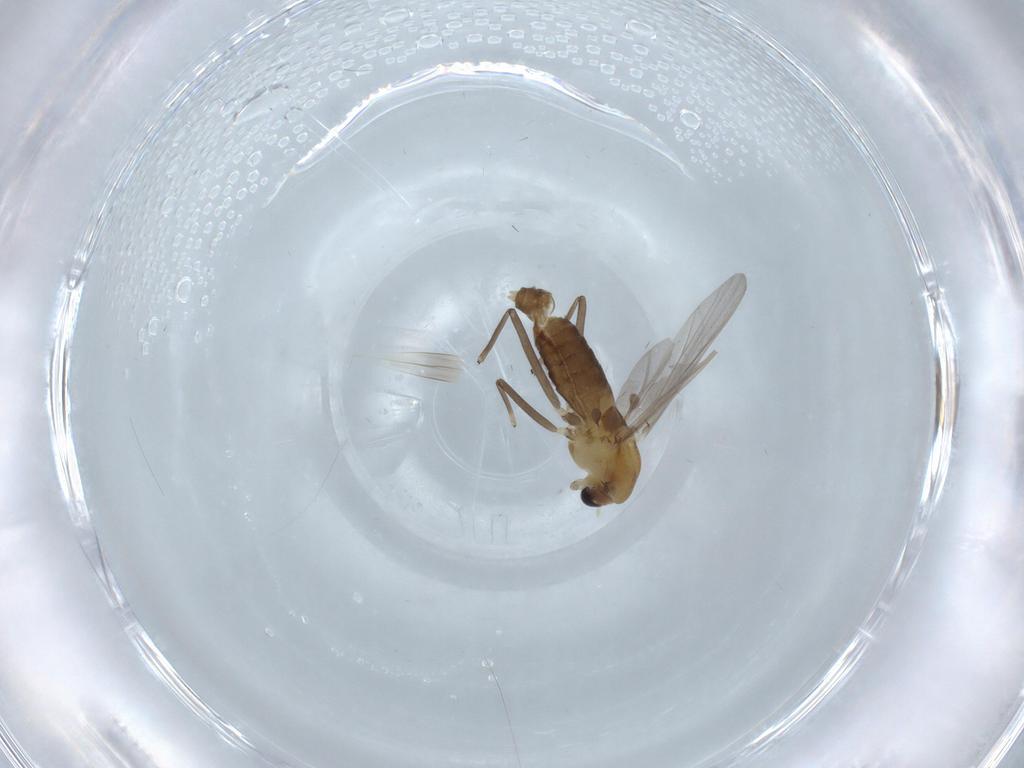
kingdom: Animalia
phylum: Arthropoda
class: Insecta
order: Diptera
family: Chironomidae
